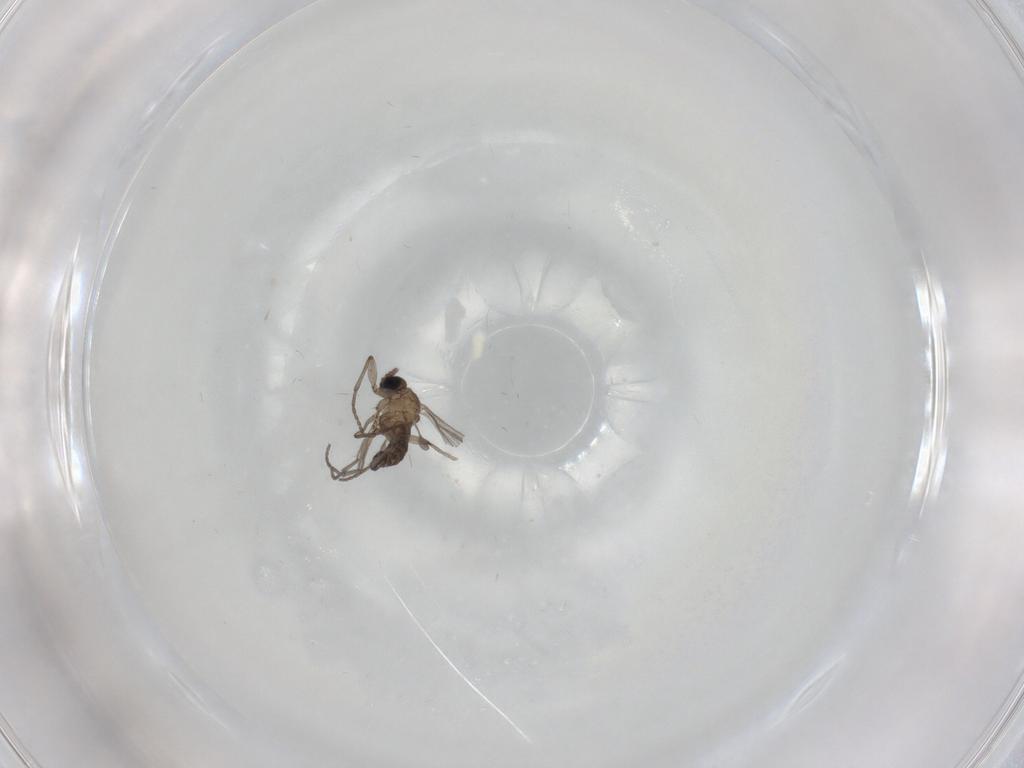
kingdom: Animalia
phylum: Arthropoda
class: Insecta
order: Diptera
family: Sciaridae
